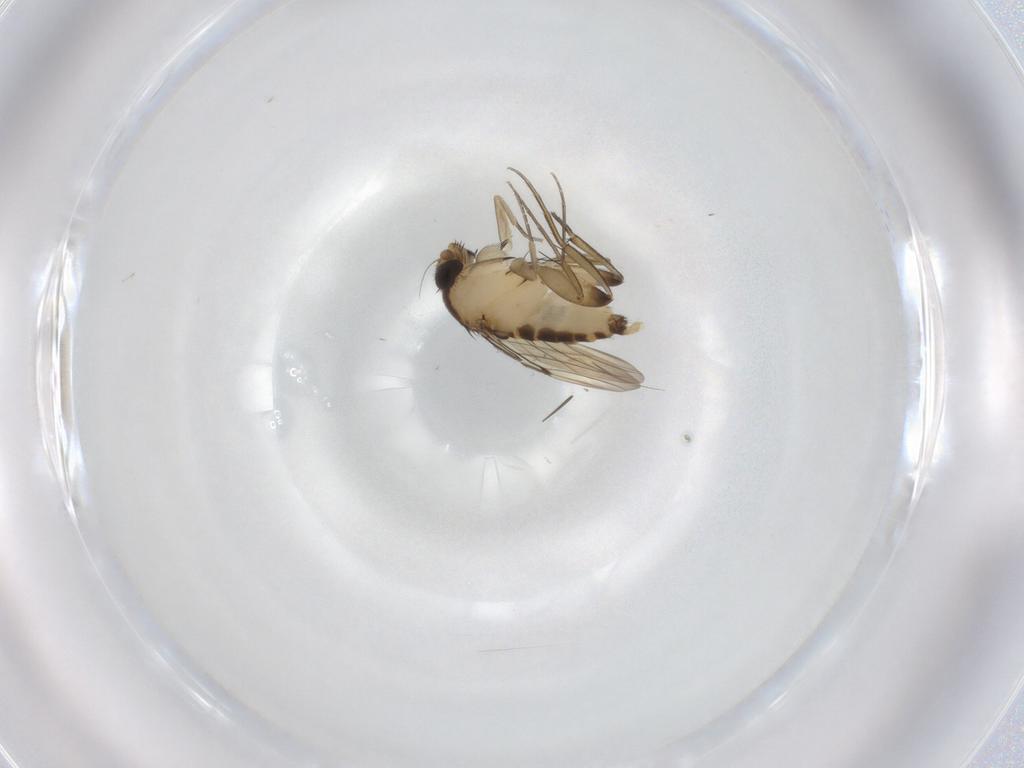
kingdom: Animalia
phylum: Arthropoda
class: Insecta
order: Diptera
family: Phoridae
